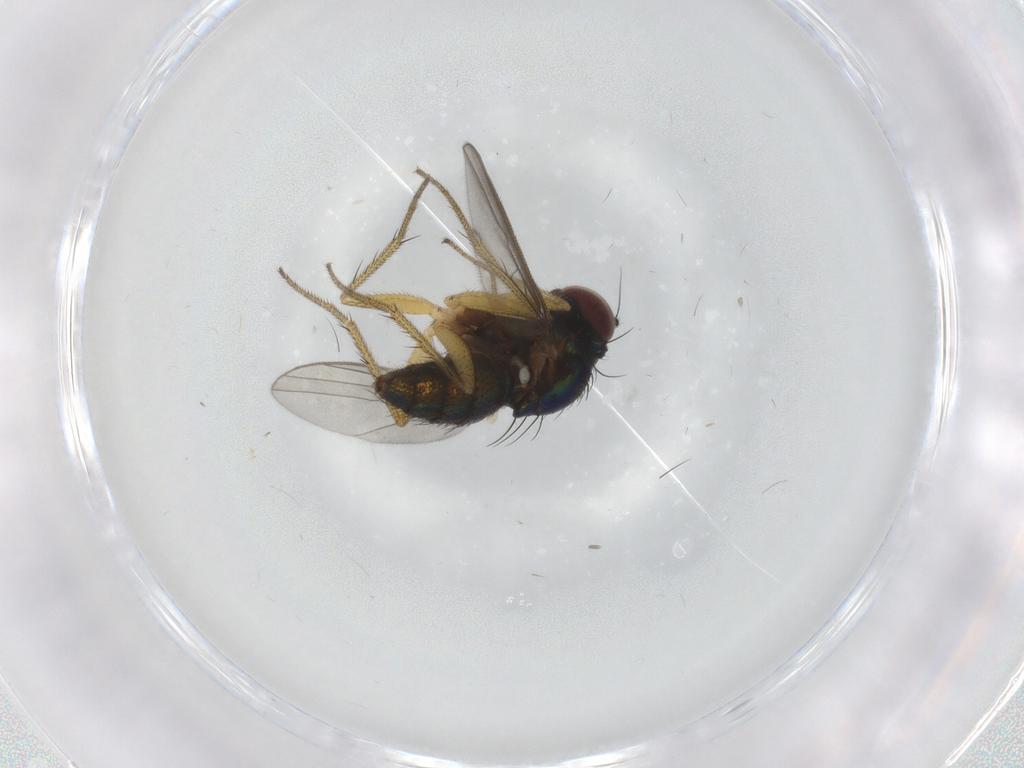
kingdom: Animalia
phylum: Arthropoda
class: Insecta
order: Diptera
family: Dolichopodidae
